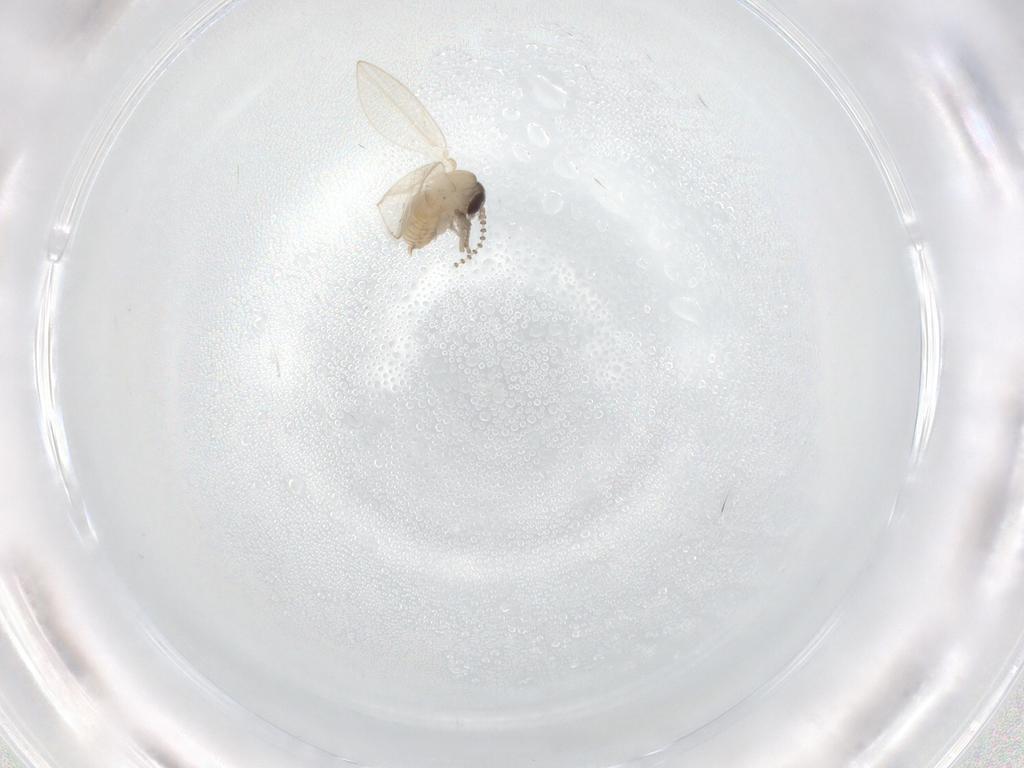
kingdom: Animalia
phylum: Arthropoda
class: Insecta
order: Diptera
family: Psychodidae
